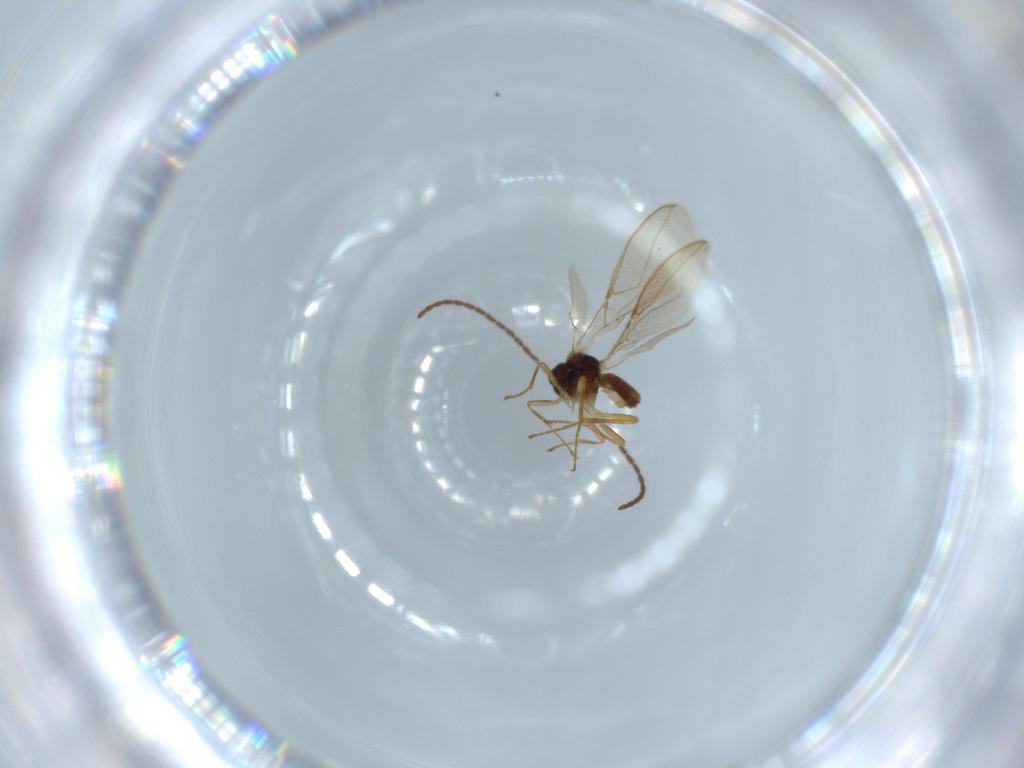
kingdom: Animalia
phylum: Arthropoda
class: Insecta
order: Hymenoptera
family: Braconidae
